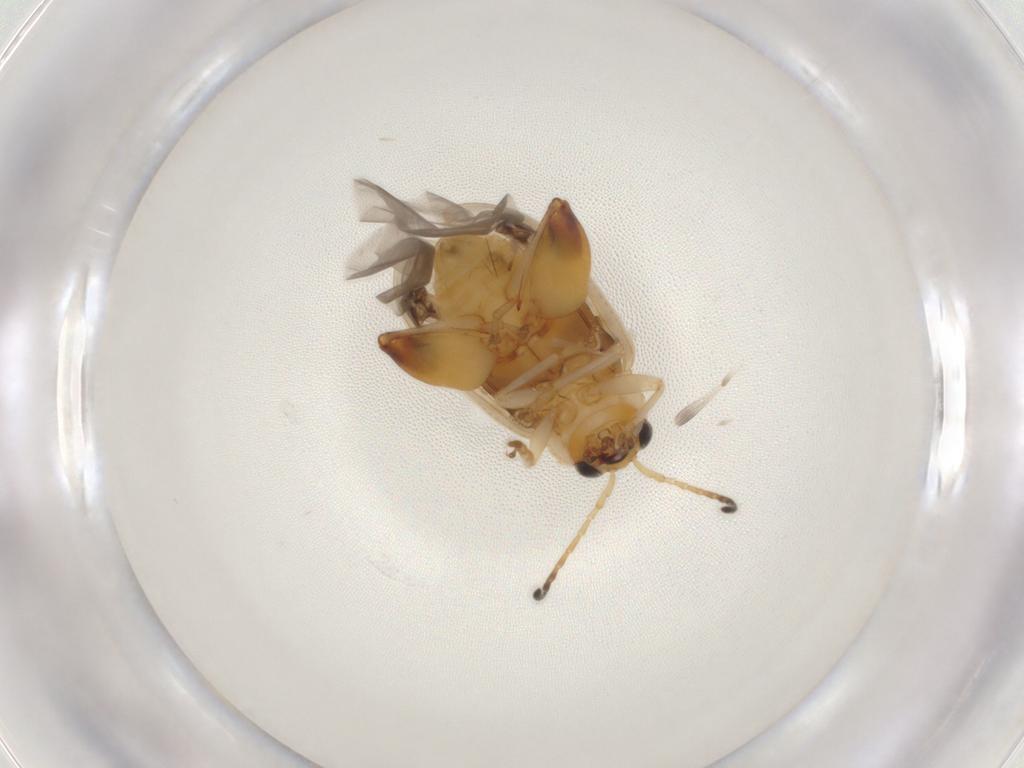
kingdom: Animalia
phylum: Arthropoda
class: Insecta
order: Coleoptera
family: Chrysomelidae
